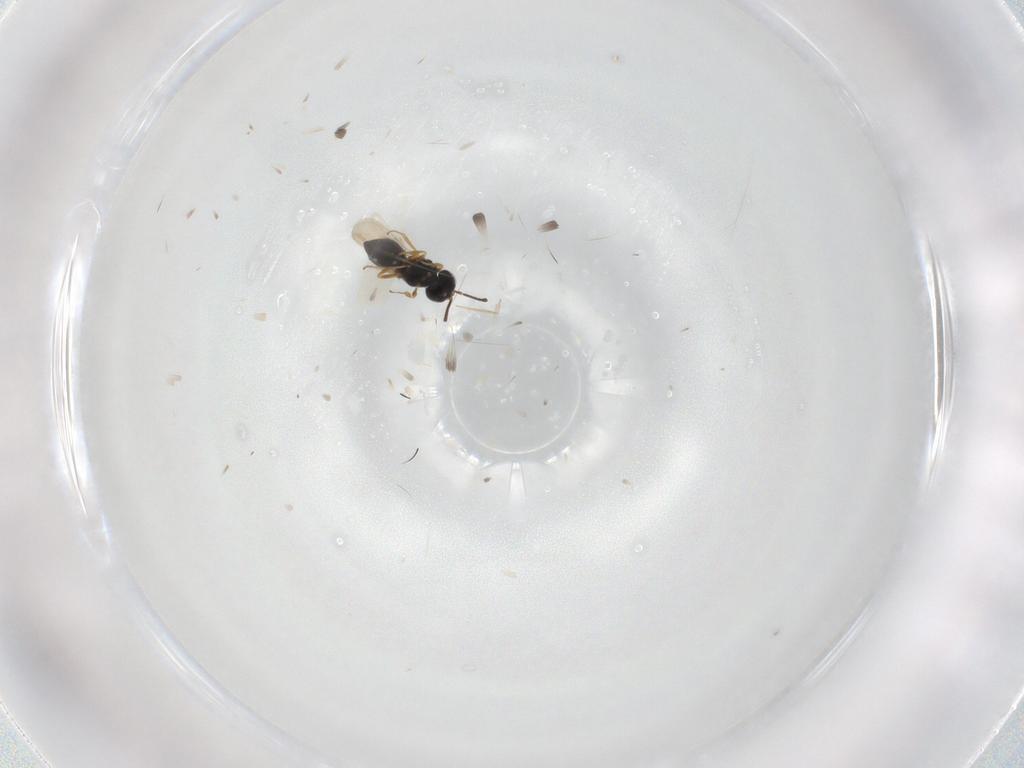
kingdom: Animalia
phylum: Arthropoda
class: Insecta
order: Hymenoptera
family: Scelionidae
